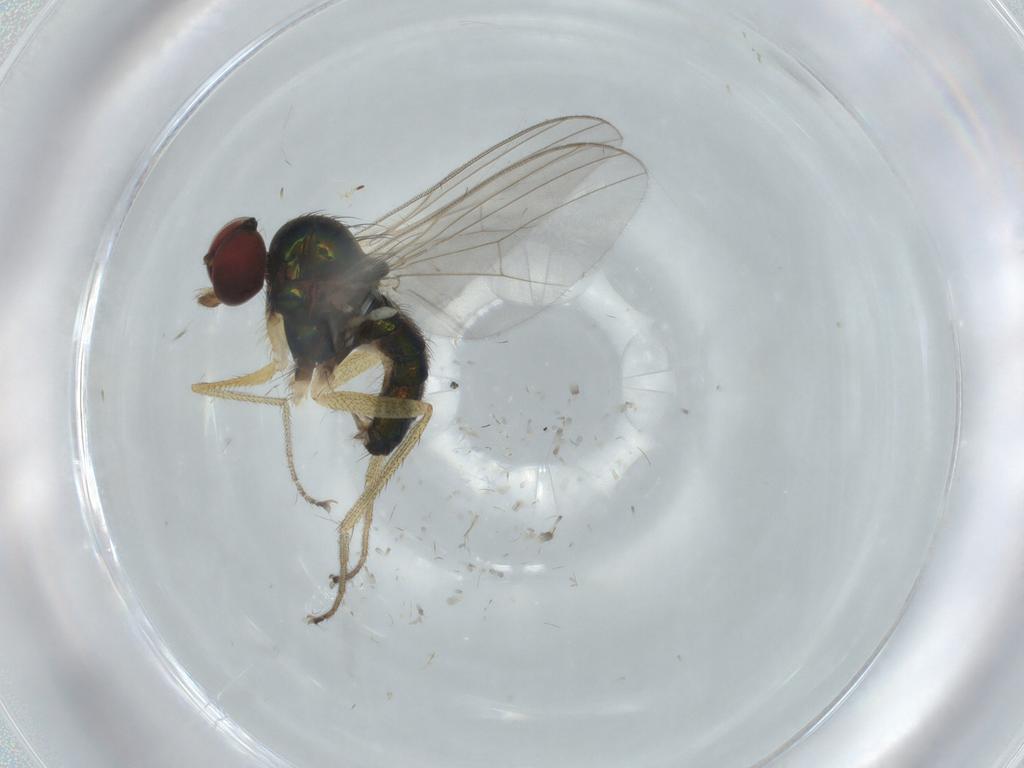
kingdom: Animalia
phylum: Arthropoda
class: Insecta
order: Diptera
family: Dolichopodidae
